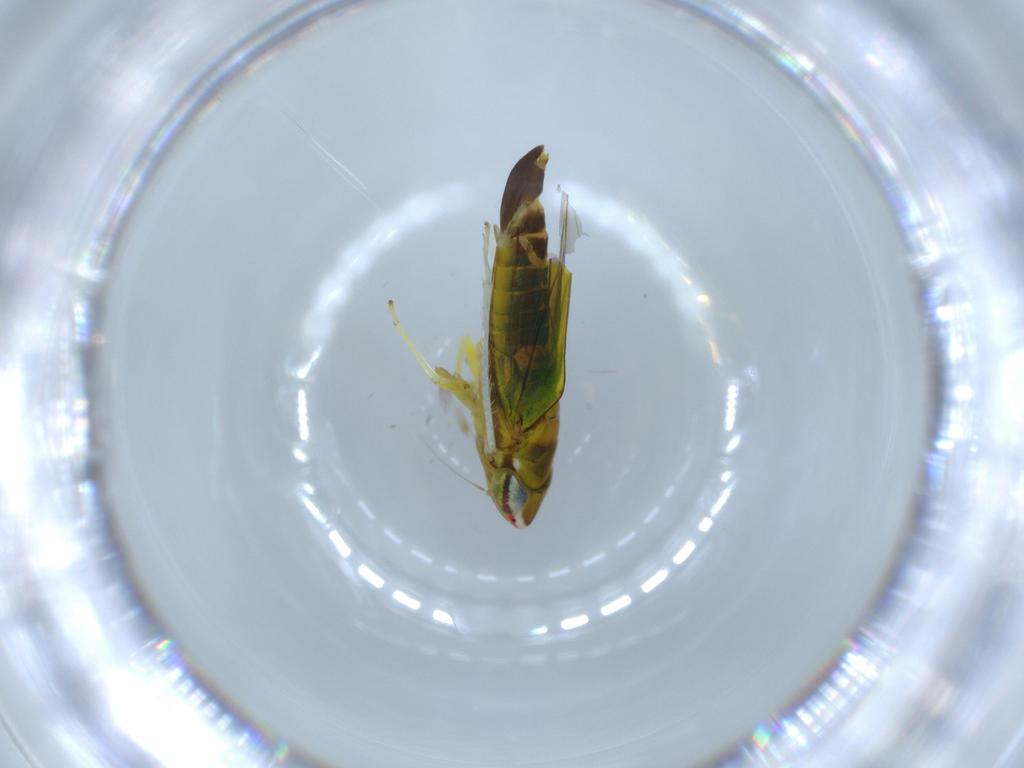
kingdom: Animalia
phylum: Arthropoda
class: Insecta
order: Hemiptera
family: Cicadellidae
